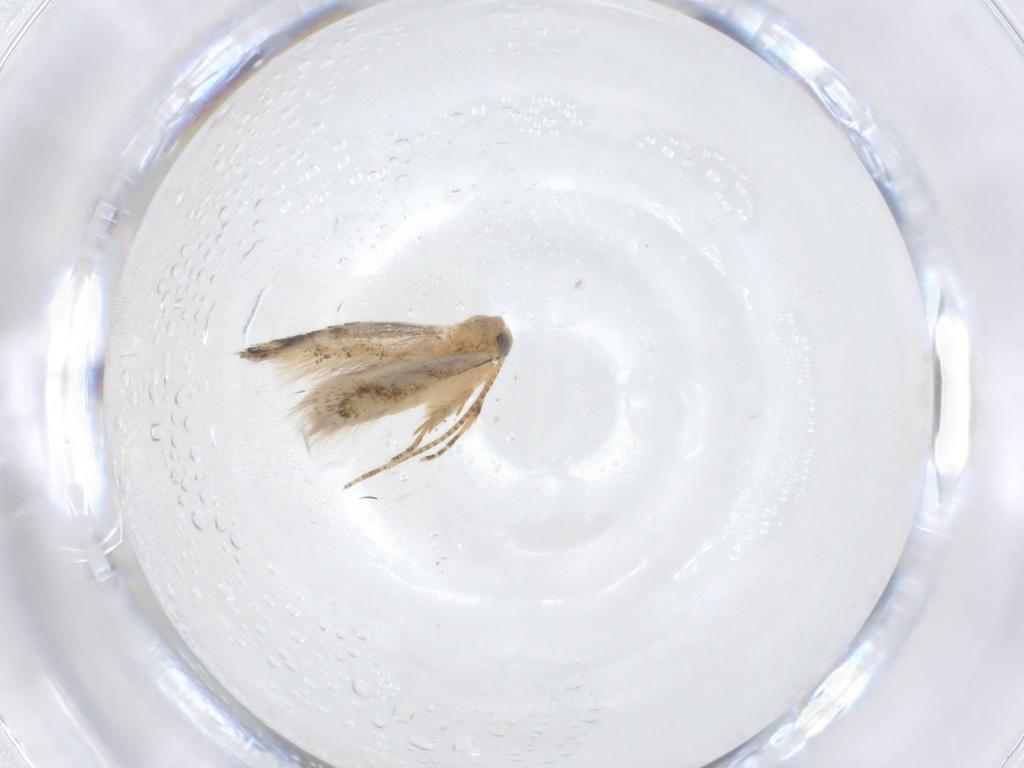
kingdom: Animalia
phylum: Arthropoda
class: Insecta
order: Lepidoptera
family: Bucculatricidae
